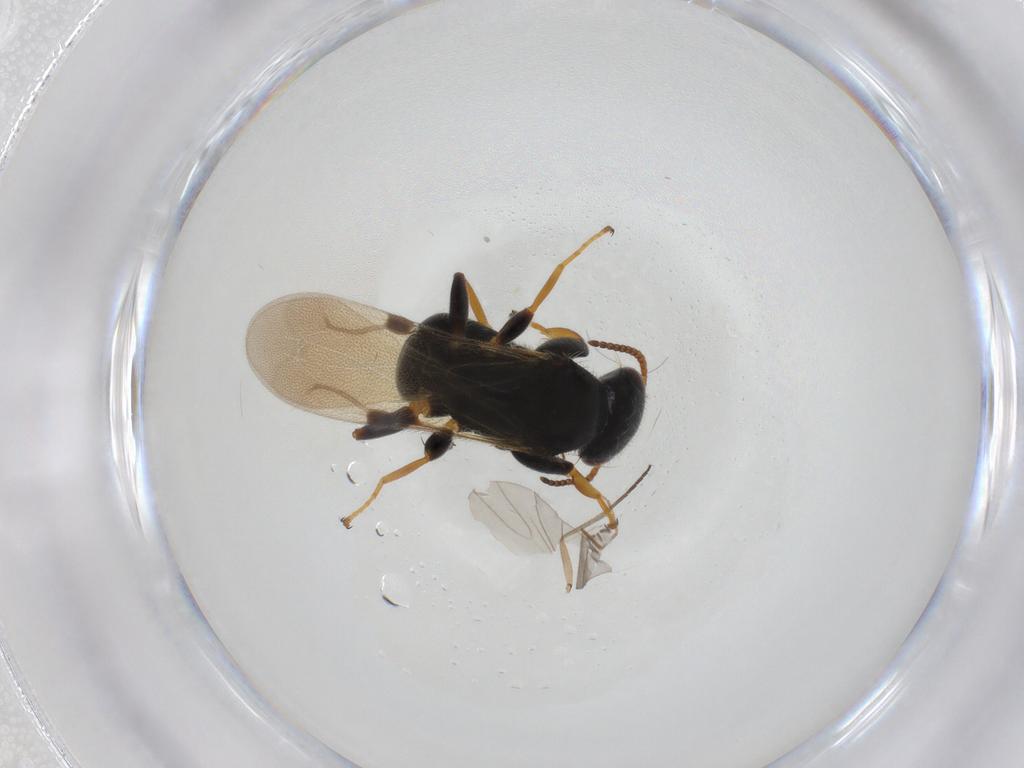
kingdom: Animalia
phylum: Arthropoda
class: Insecta
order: Hymenoptera
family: Bethylidae
